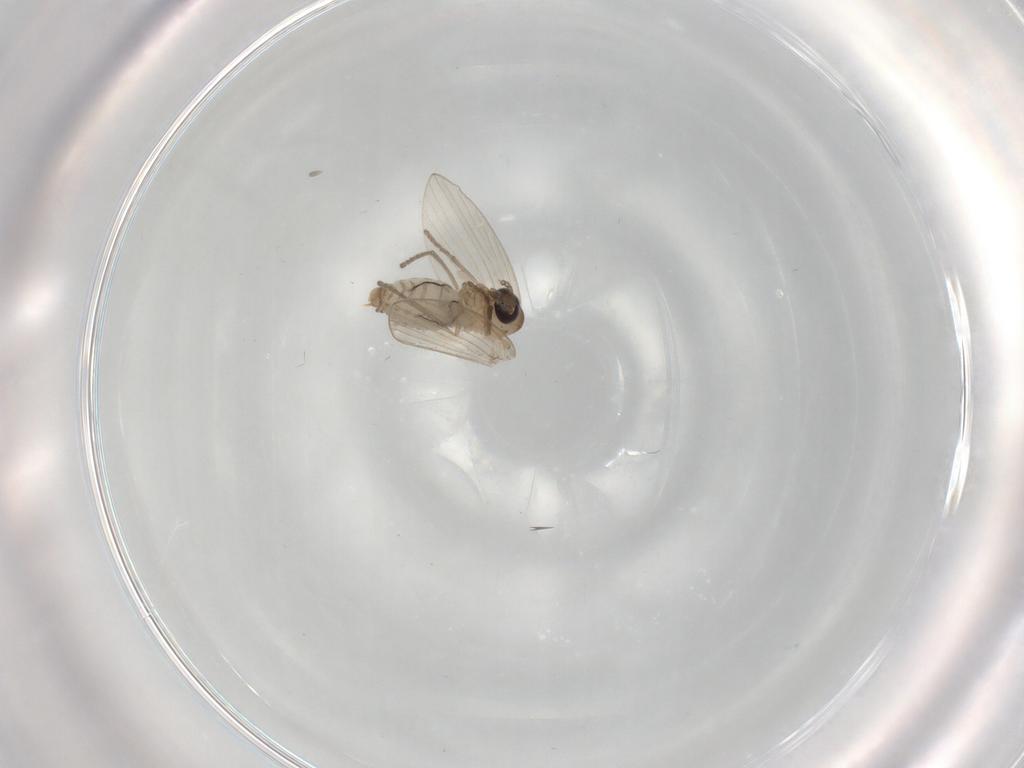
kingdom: Animalia
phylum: Arthropoda
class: Insecta
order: Diptera
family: Psychodidae
